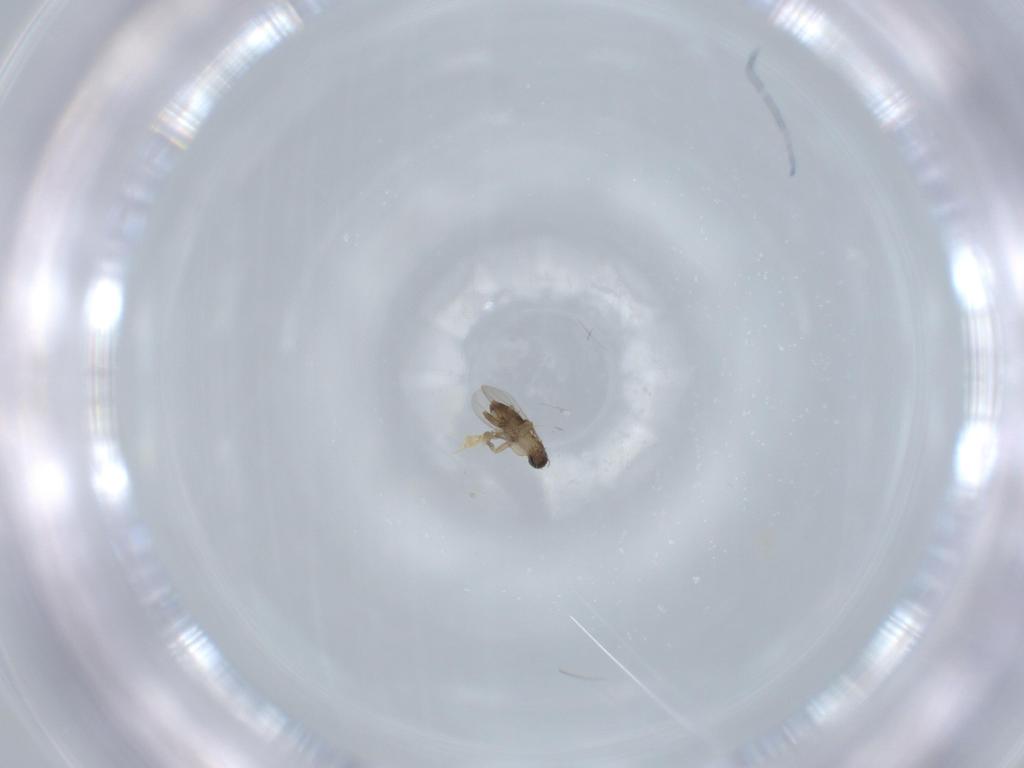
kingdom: Animalia
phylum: Arthropoda
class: Insecta
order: Diptera
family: Phoridae
